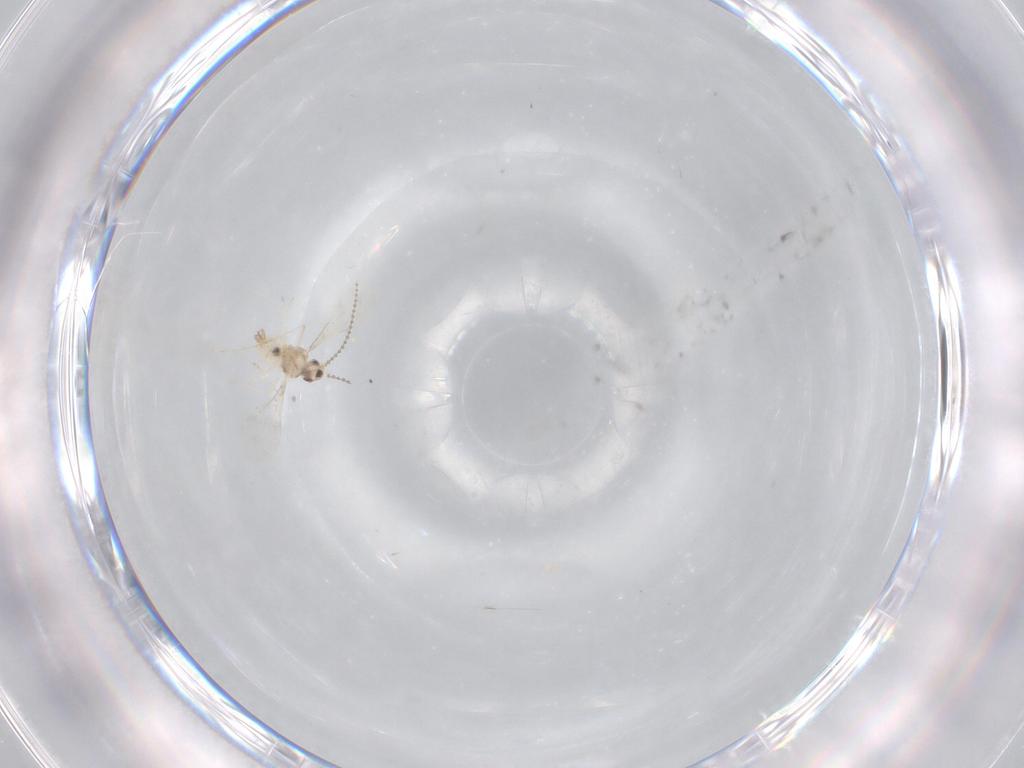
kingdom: Animalia
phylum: Arthropoda
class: Insecta
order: Diptera
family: Cecidomyiidae
